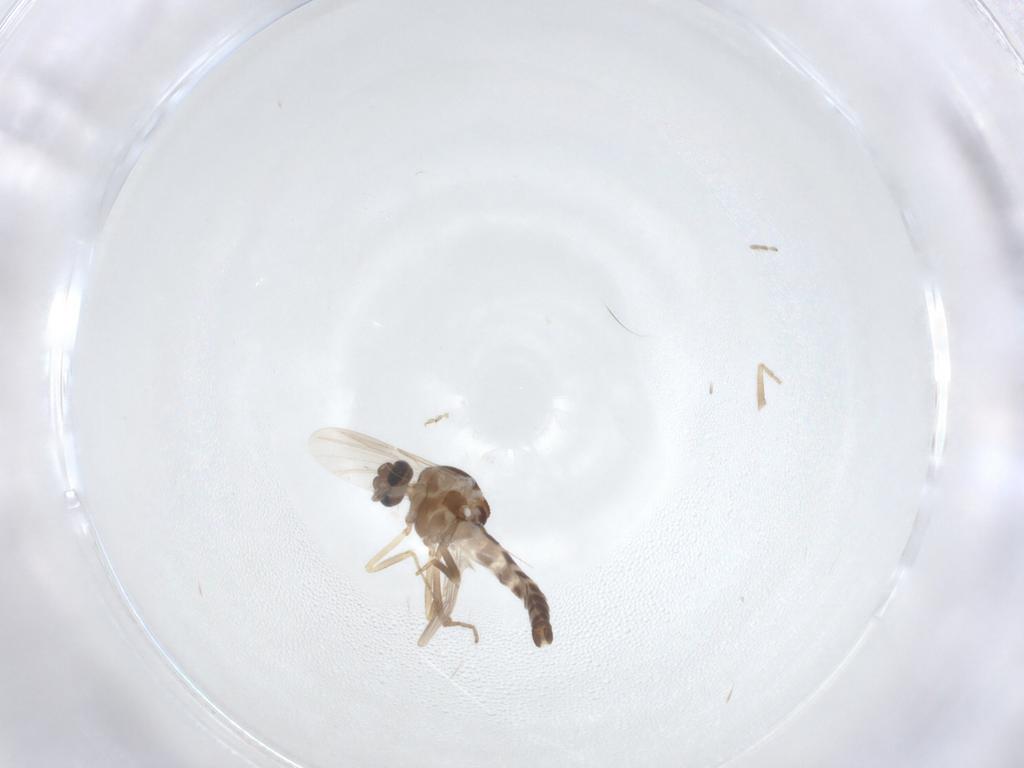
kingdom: Animalia
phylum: Arthropoda
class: Insecta
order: Diptera
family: Ceratopogonidae
